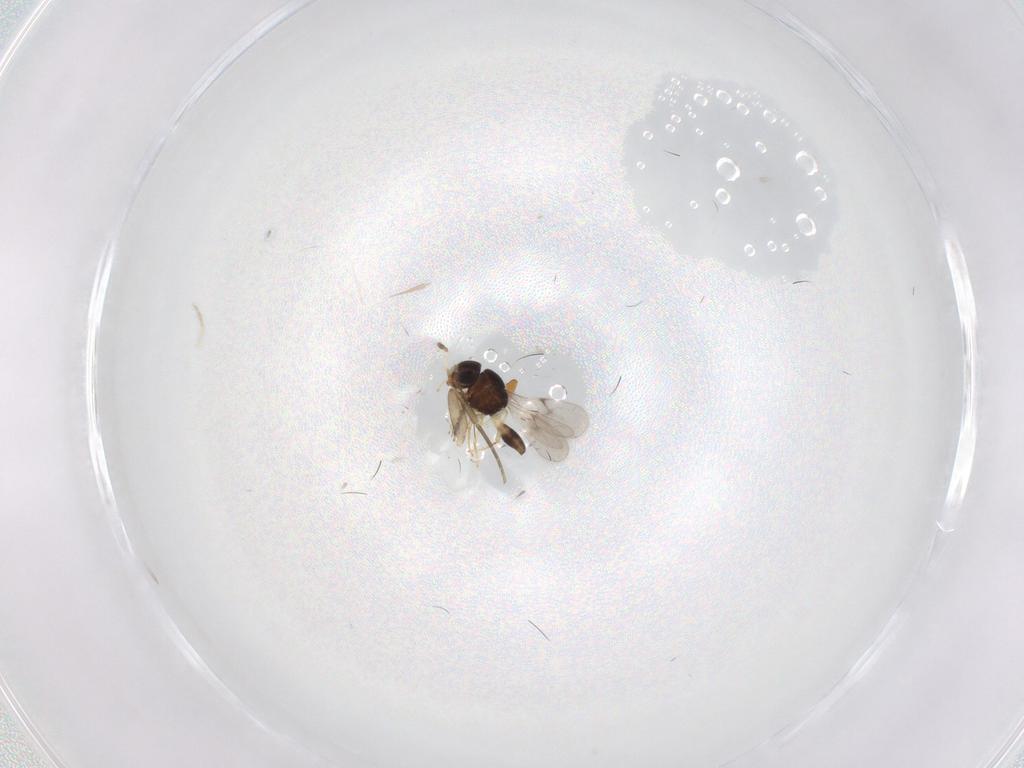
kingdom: Animalia
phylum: Arthropoda
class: Insecta
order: Hymenoptera
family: Scelionidae
